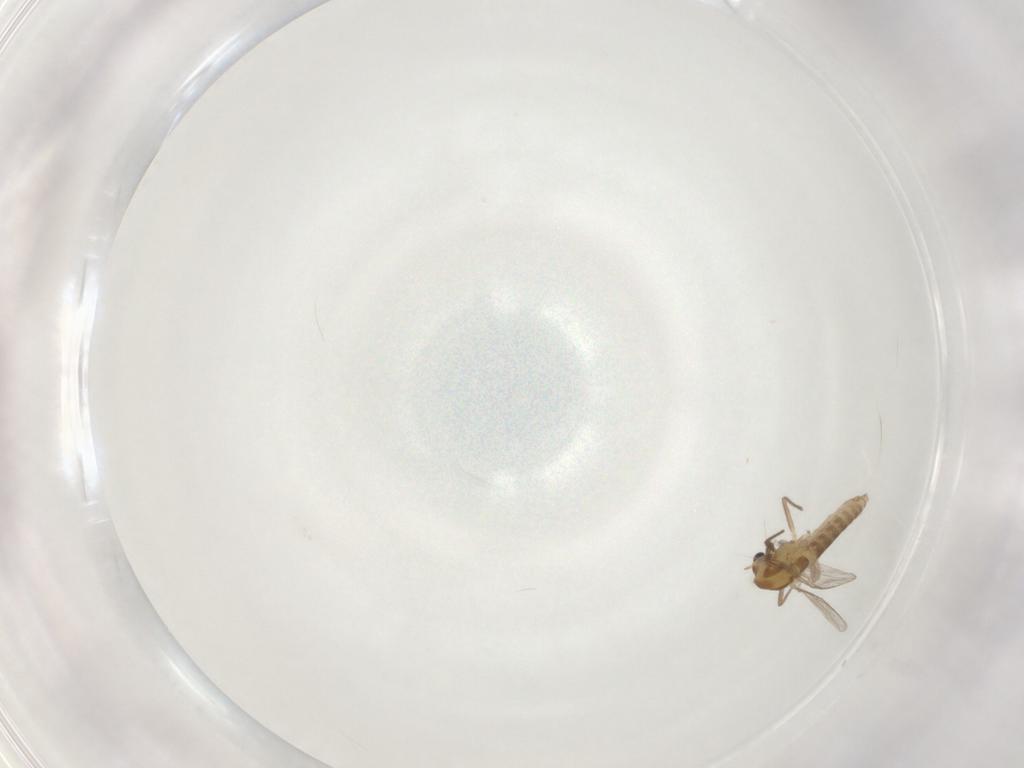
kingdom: Animalia
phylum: Arthropoda
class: Insecta
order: Diptera
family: Chironomidae
